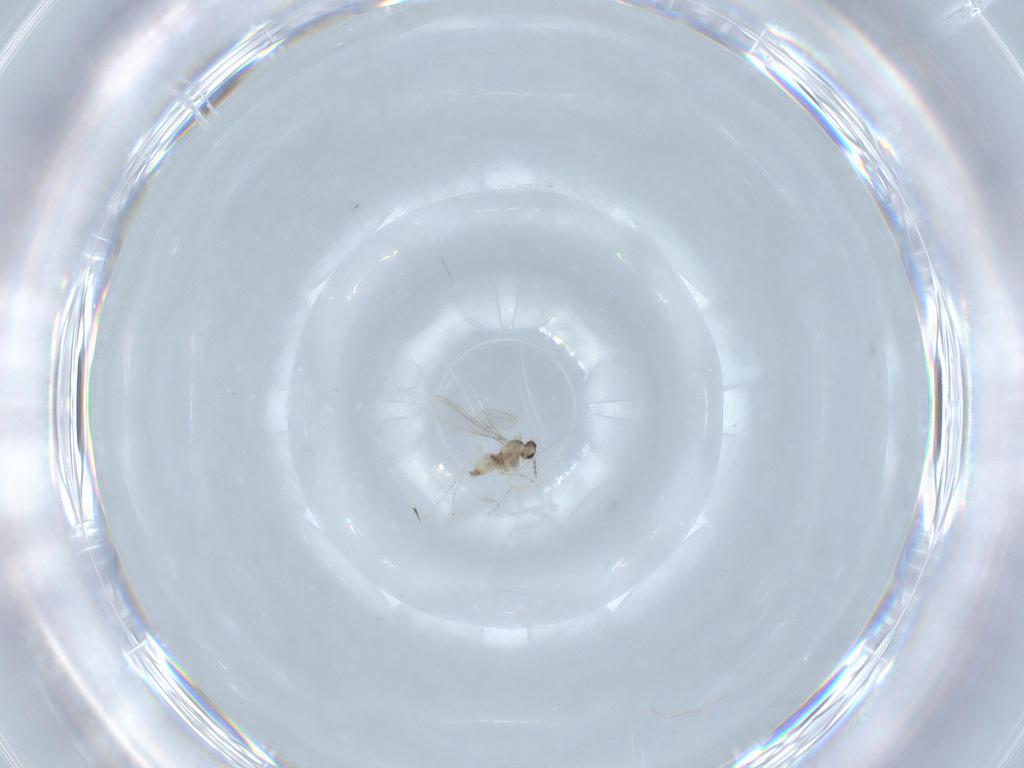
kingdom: Animalia
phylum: Arthropoda
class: Insecta
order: Diptera
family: Cecidomyiidae
